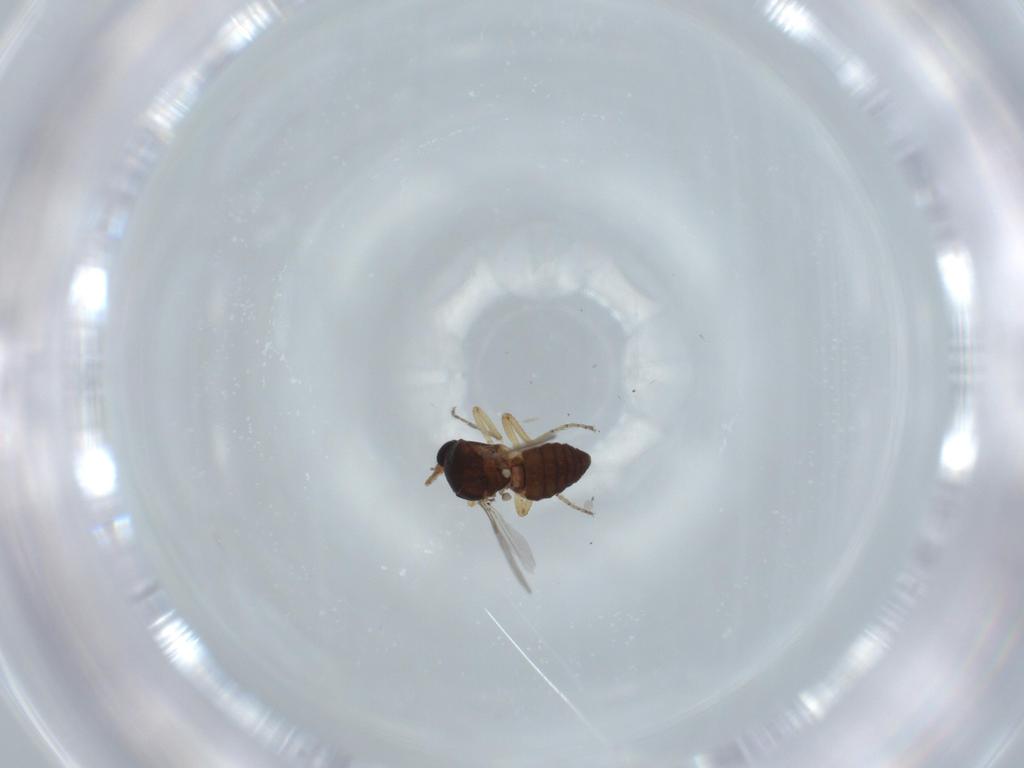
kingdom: Animalia
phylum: Arthropoda
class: Insecta
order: Diptera
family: Ceratopogonidae
